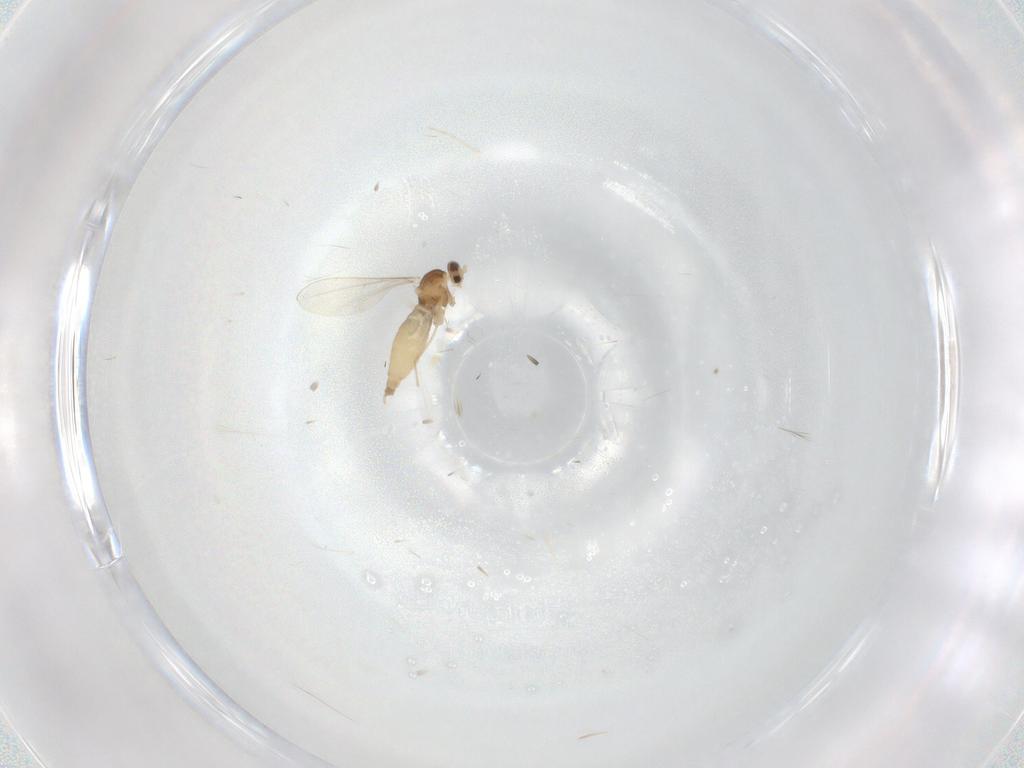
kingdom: Animalia
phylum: Arthropoda
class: Insecta
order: Diptera
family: Cecidomyiidae
